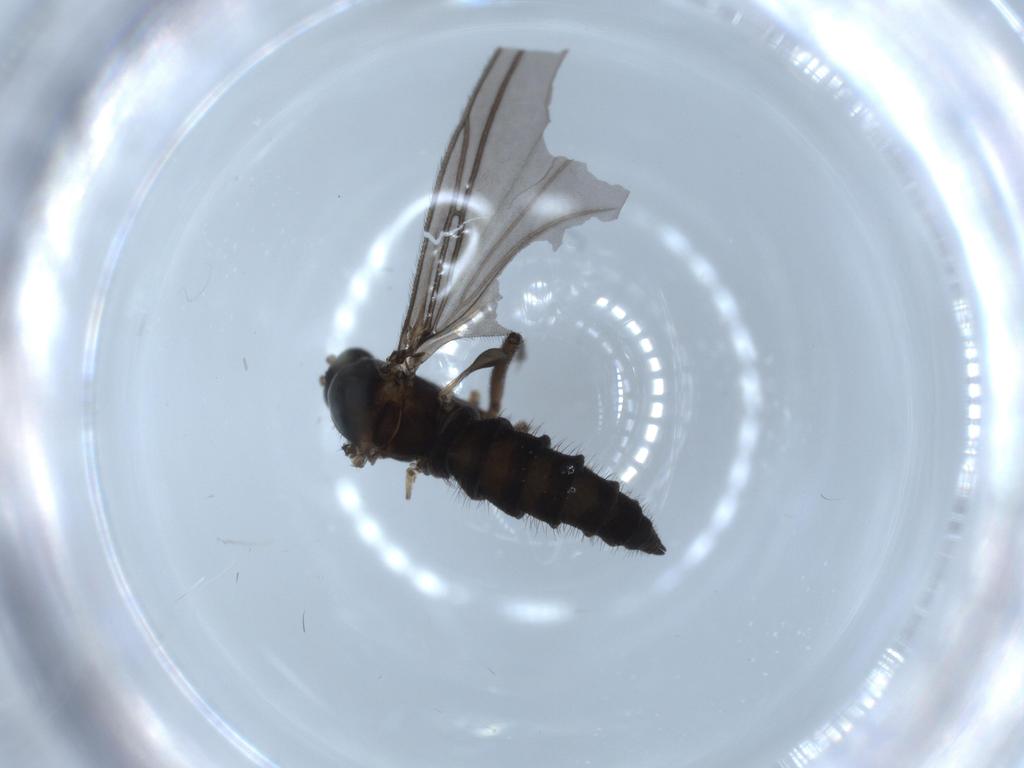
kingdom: Animalia
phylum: Arthropoda
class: Insecta
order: Diptera
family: Sciaridae
